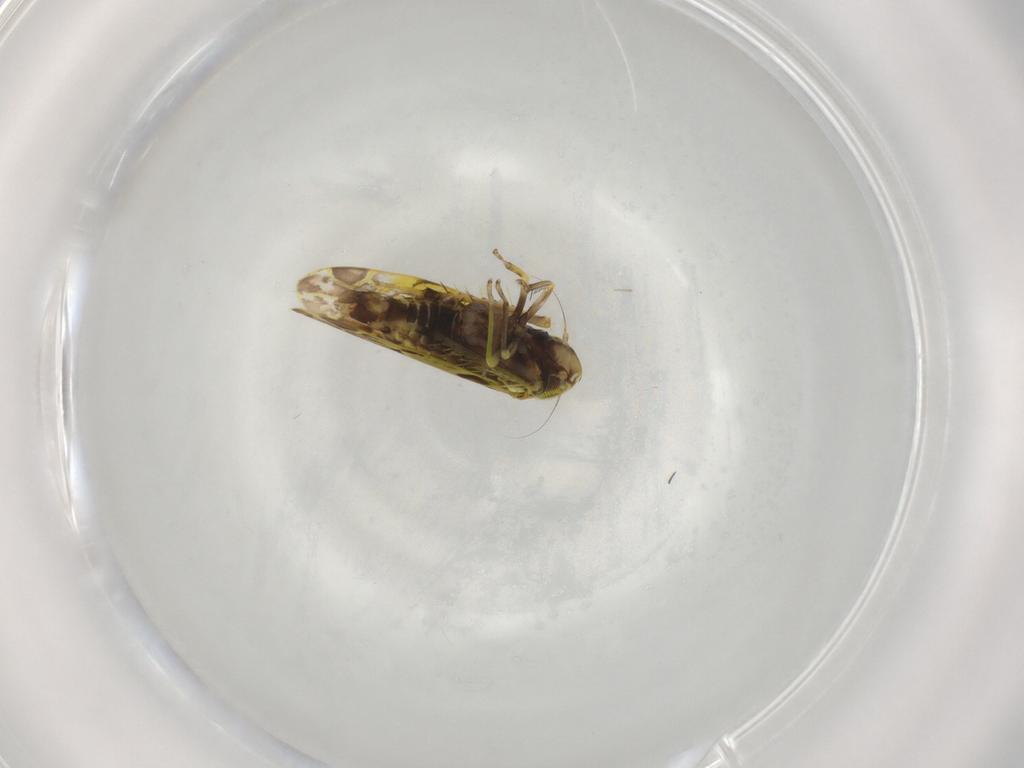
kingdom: Animalia
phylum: Arthropoda
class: Insecta
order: Hemiptera
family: Cicadellidae
